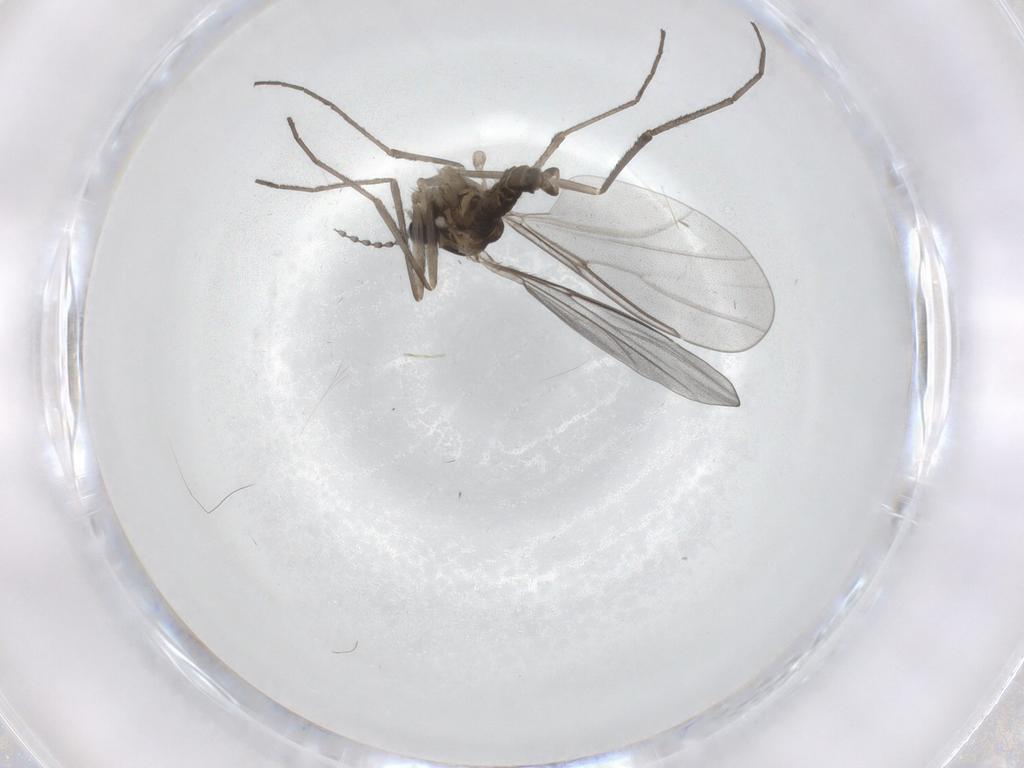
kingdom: Animalia
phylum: Arthropoda
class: Insecta
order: Diptera
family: Cecidomyiidae
